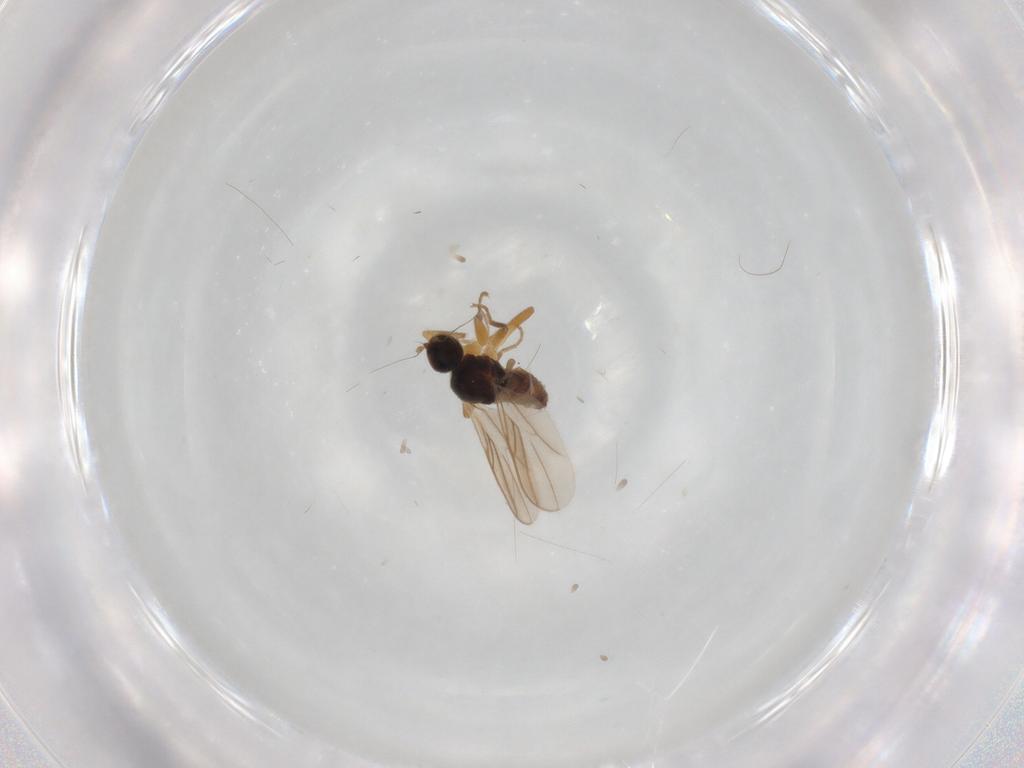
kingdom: Animalia
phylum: Arthropoda
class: Insecta
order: Diptera
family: Hybotidae
